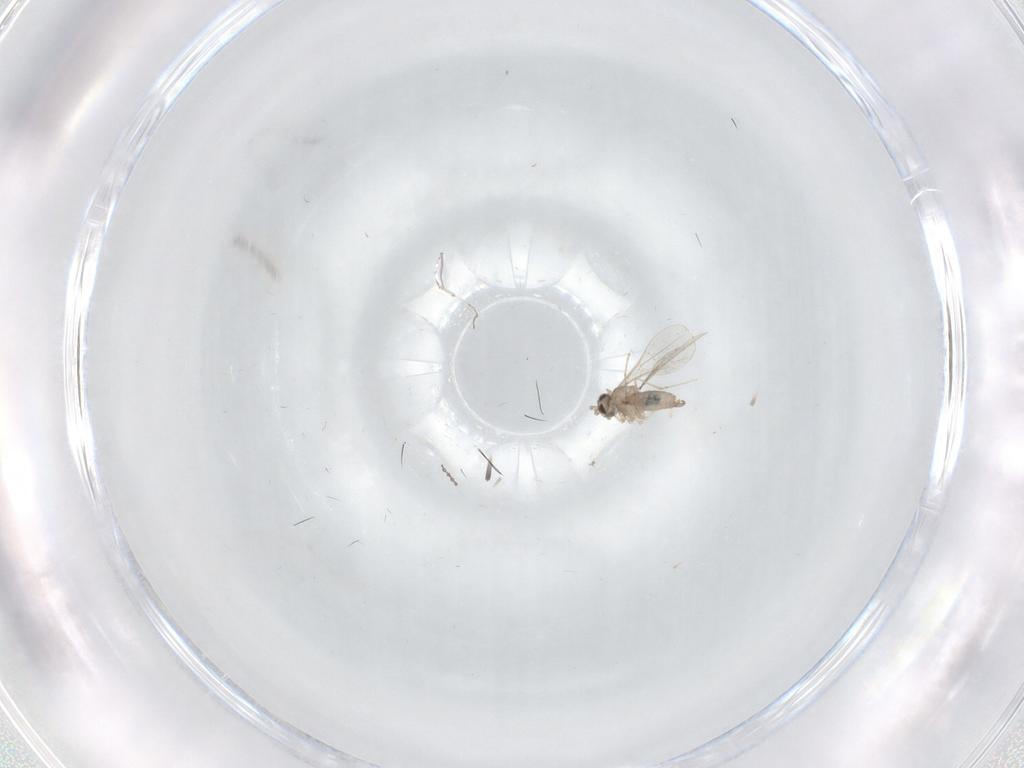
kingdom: Animalia
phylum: Arthropoda
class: Insecta
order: Diptera
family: Cecidomyiidae
